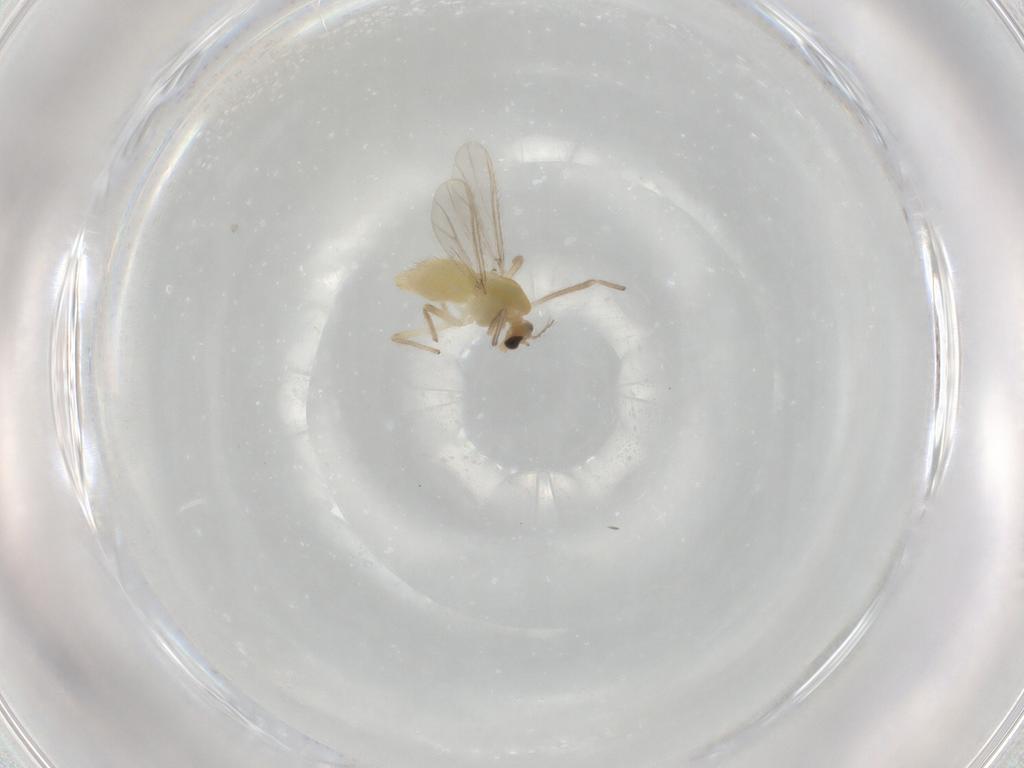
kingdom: Animalia
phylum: Arthropoda
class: Insecta
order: Diptera
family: Chironomidae
